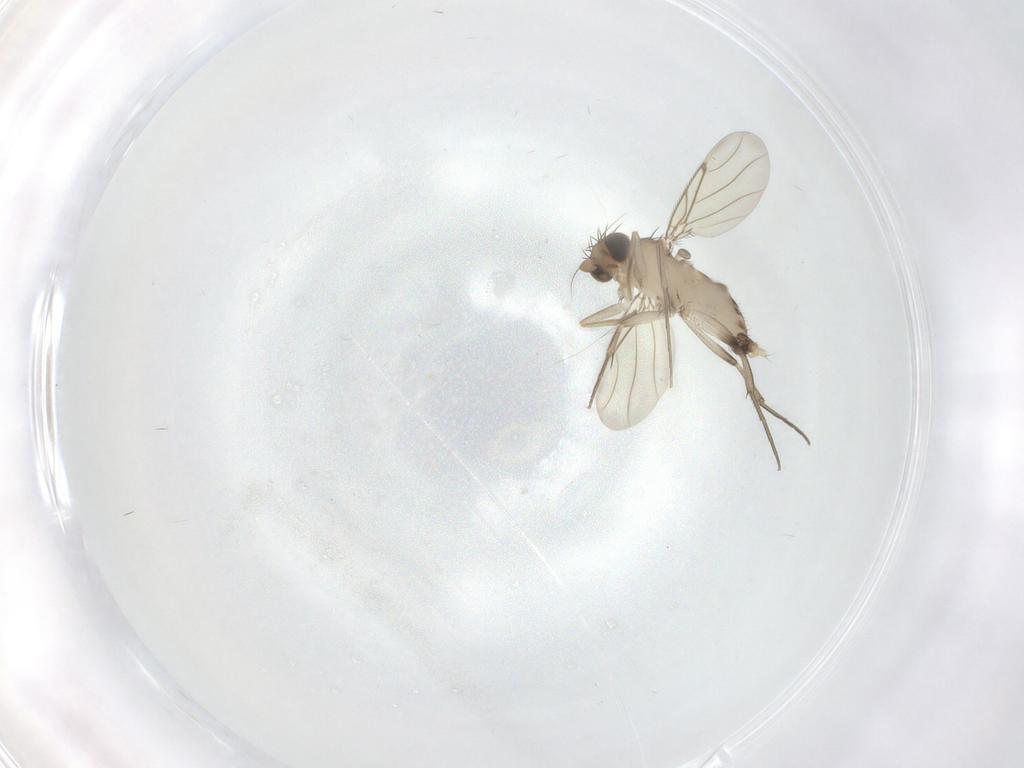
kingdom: Animalia
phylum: Arthropoda
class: Insecta
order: Diptera
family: Phoridae
